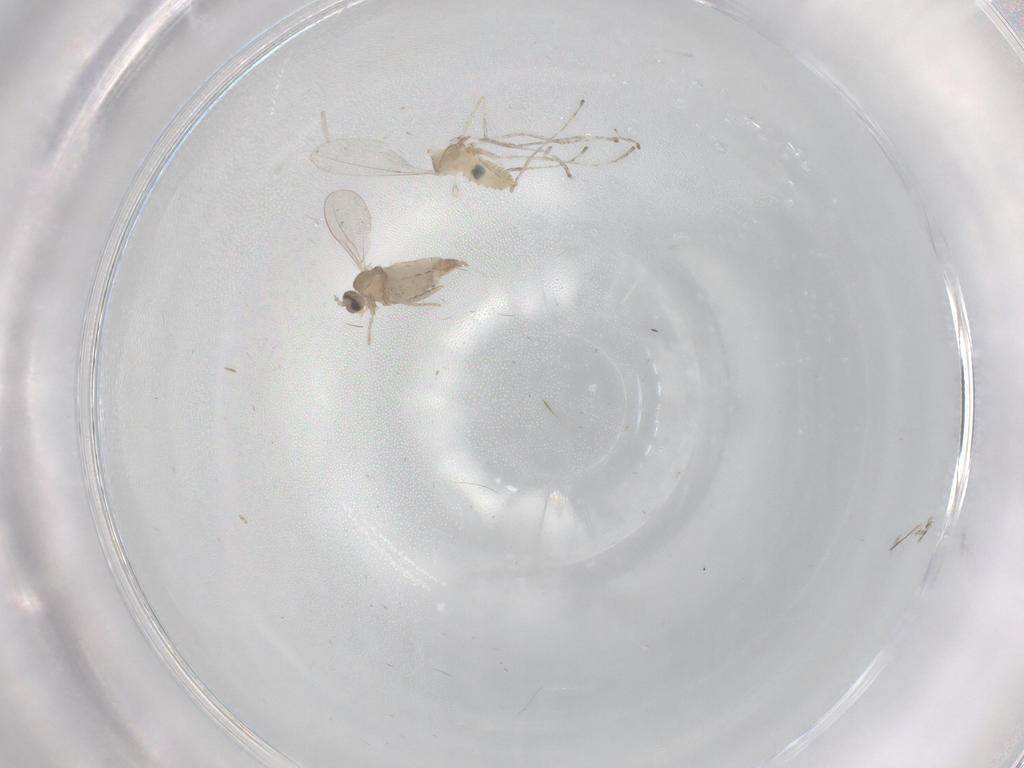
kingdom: Animalia
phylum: Arthropoda
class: Insecta
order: Diptera
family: Cecidomyiidae
